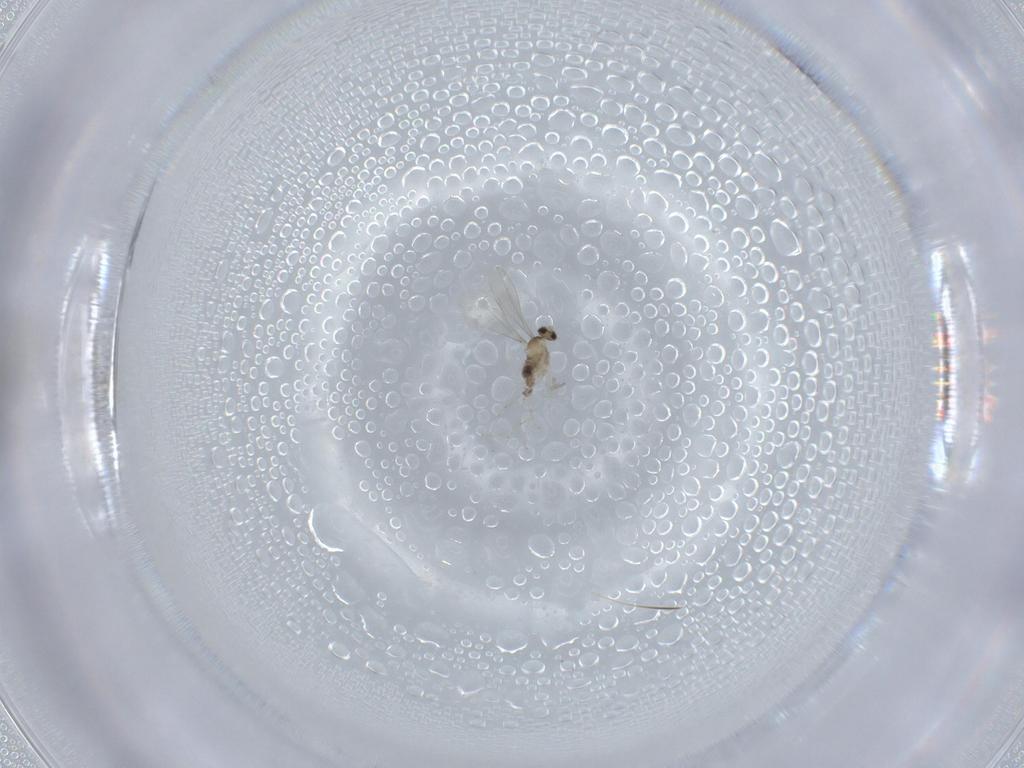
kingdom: Animalia
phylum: Arthropoda
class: Insecta
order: Diptera
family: Cecidomyiidae
